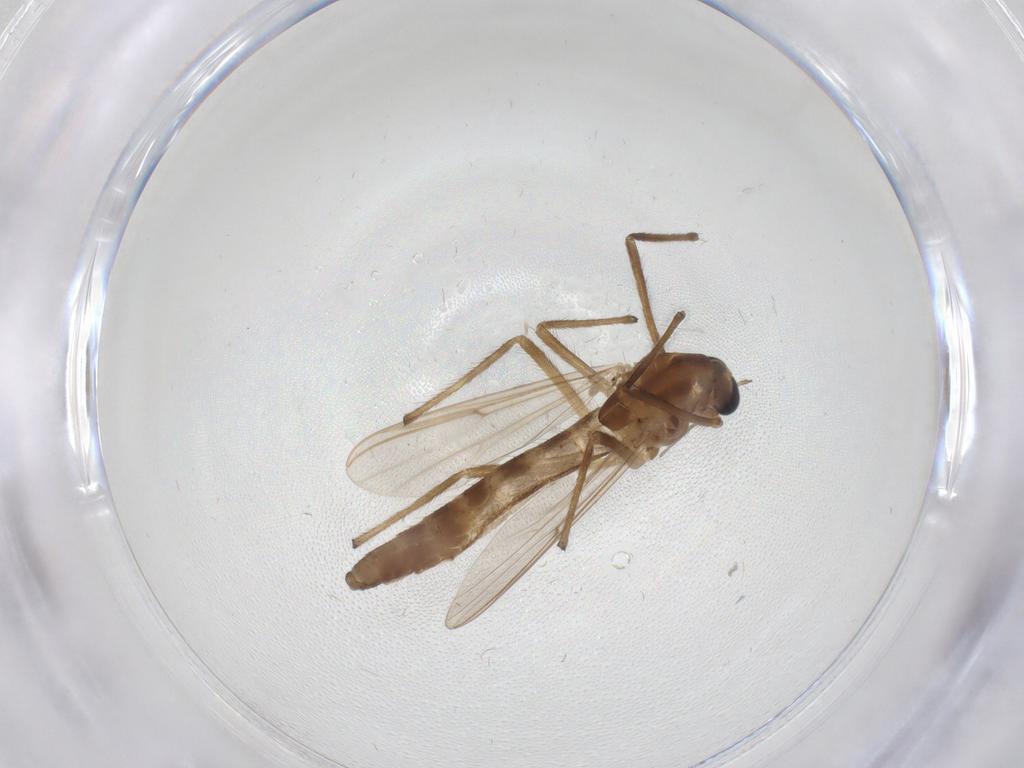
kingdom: Animalia
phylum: Arthropoda
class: Insecta
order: Diptera
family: Chironomidae
